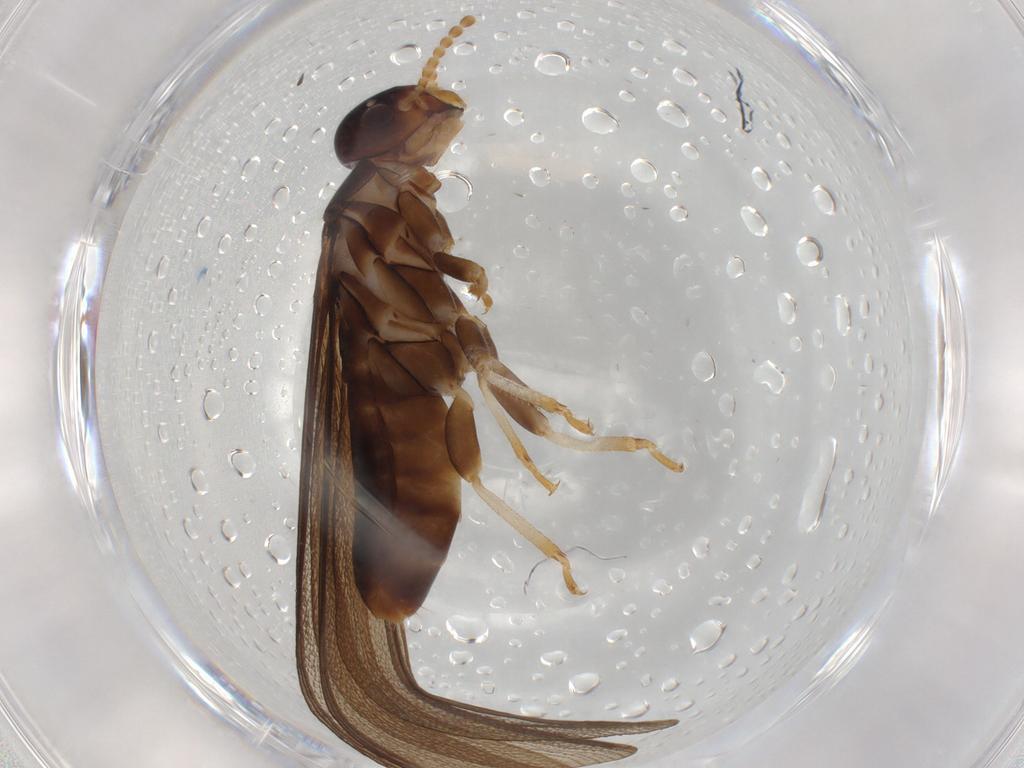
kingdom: Animalia
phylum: Arthropoda
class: Insecta
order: Blattodea
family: Kalotermitidae
